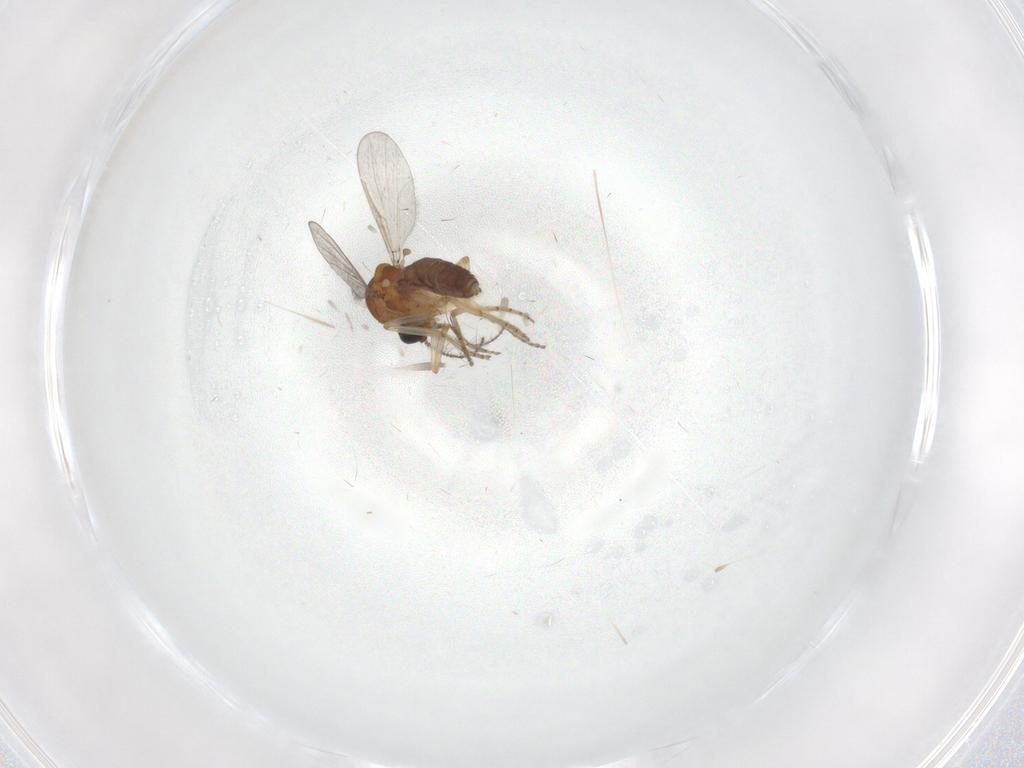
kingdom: Animalia
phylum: Arthropoda
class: Insecta
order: Diptera
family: Ceratopogonidae
